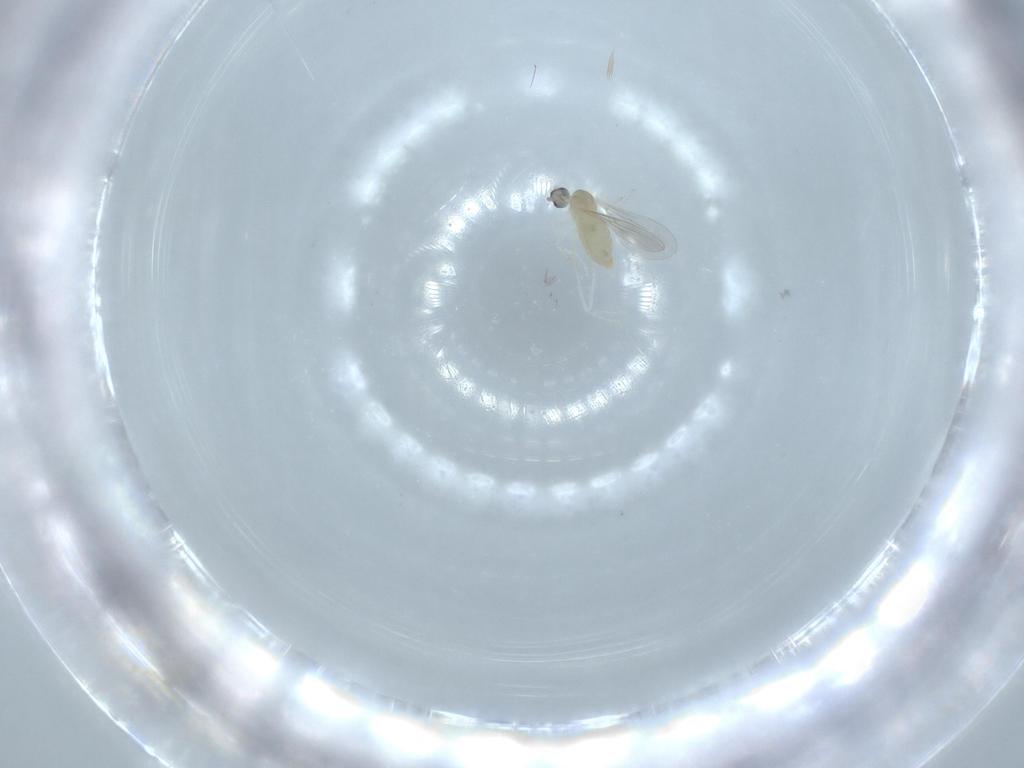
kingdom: Animalia
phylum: Arthropoda
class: Insecta
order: Diptera
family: Cecidomyiidae
